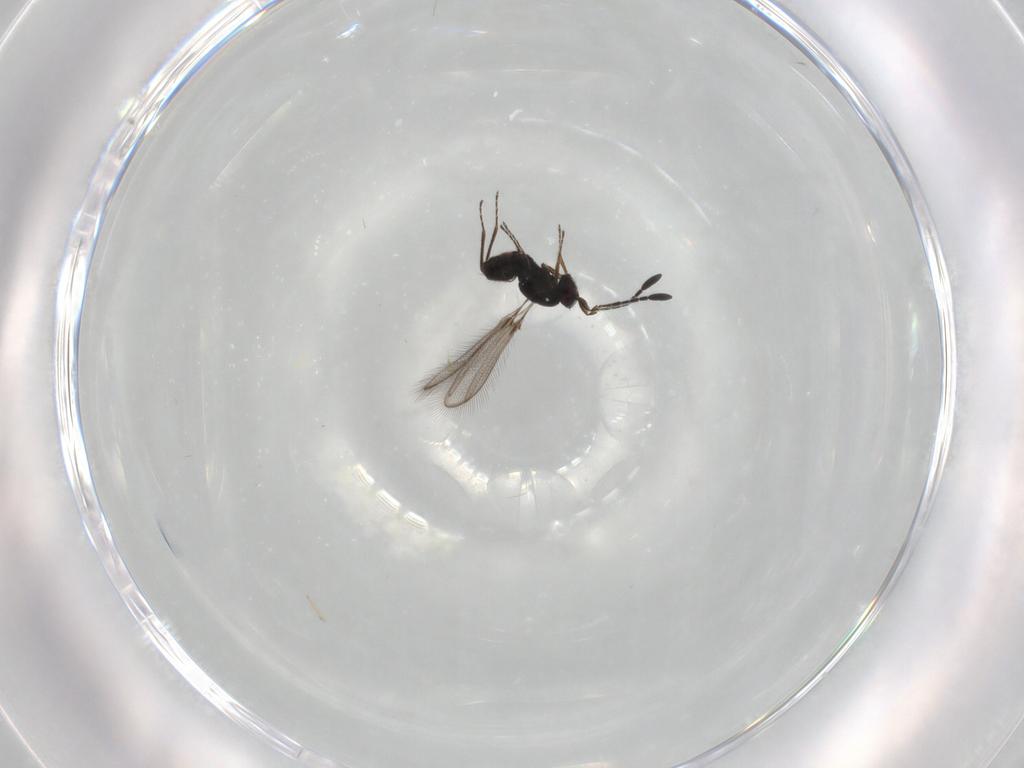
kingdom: Animalia
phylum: Arthropoda
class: Insecta
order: Hymenoptera
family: Mymaridae
